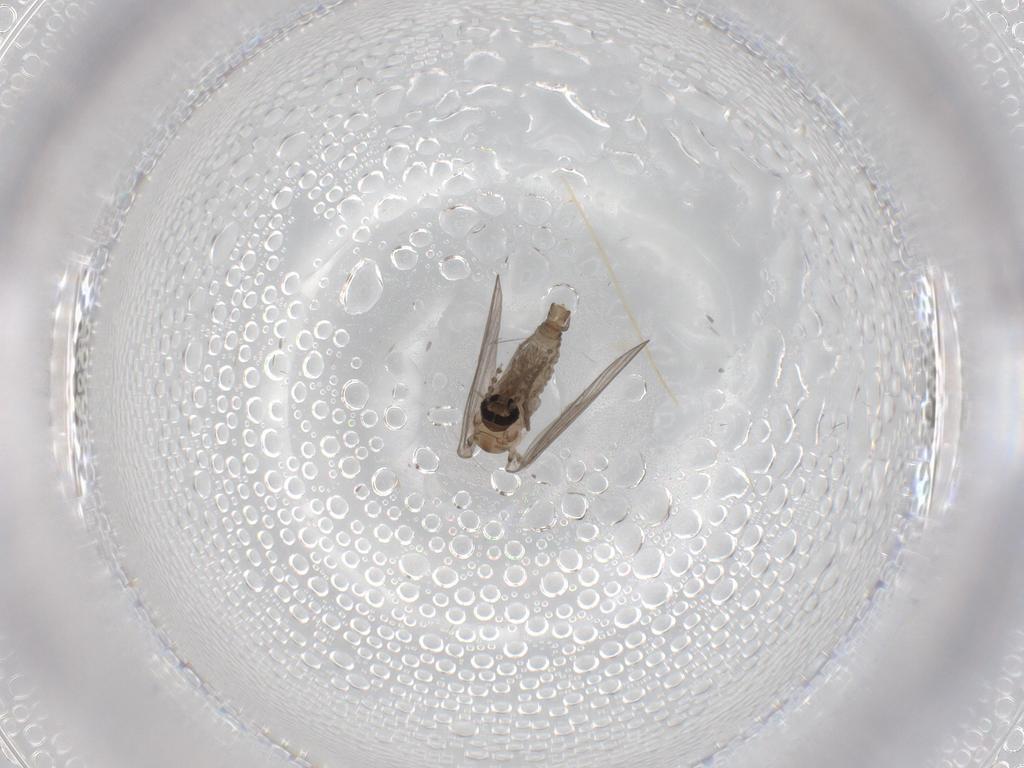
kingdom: Animalia
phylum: Arthropoda
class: Insecta
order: Diptera
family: Psychodidae
